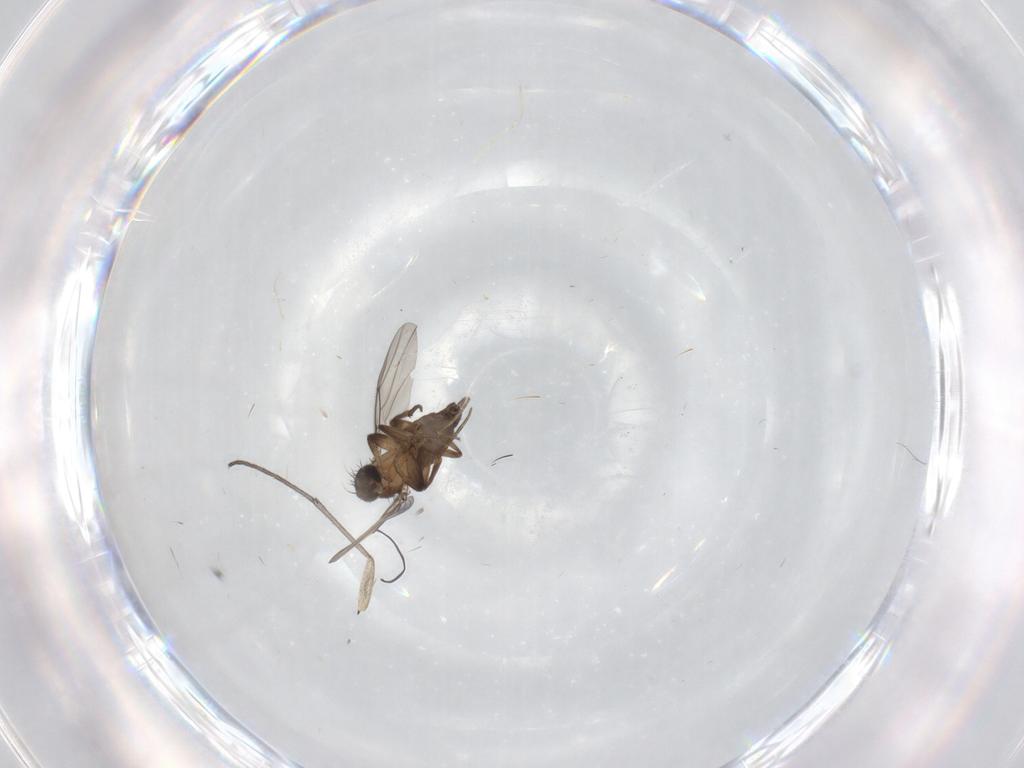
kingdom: Animalia
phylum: Arthropoda
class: Insecta
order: Diptera
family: Sciaridae
